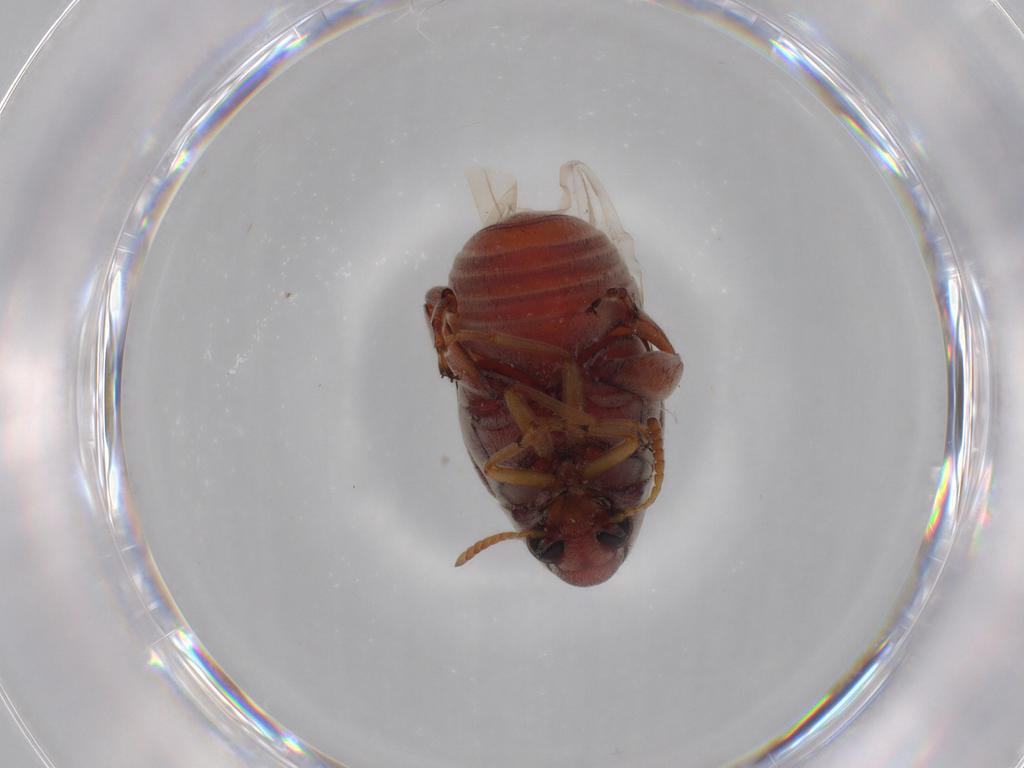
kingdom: Animalia
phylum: Arthropoda
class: Insecta
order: Coleoptera
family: Chrysomelidae
